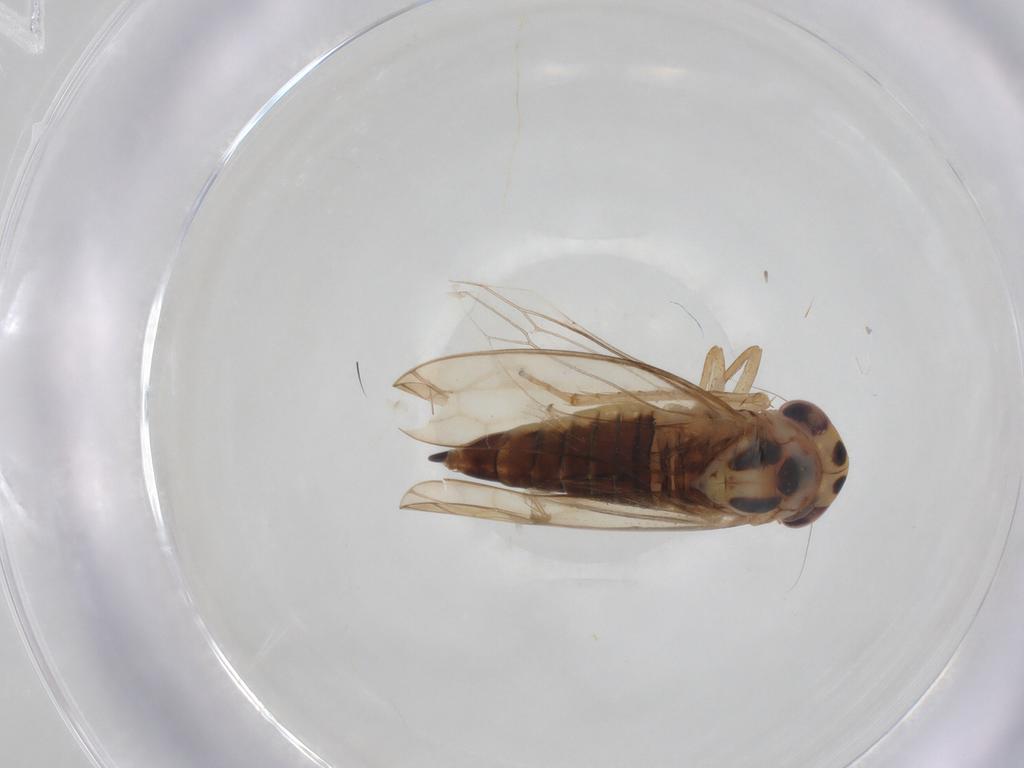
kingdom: Animalia
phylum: Arthropoda
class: Insecta
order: Hemiptera
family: Cicadellidae
